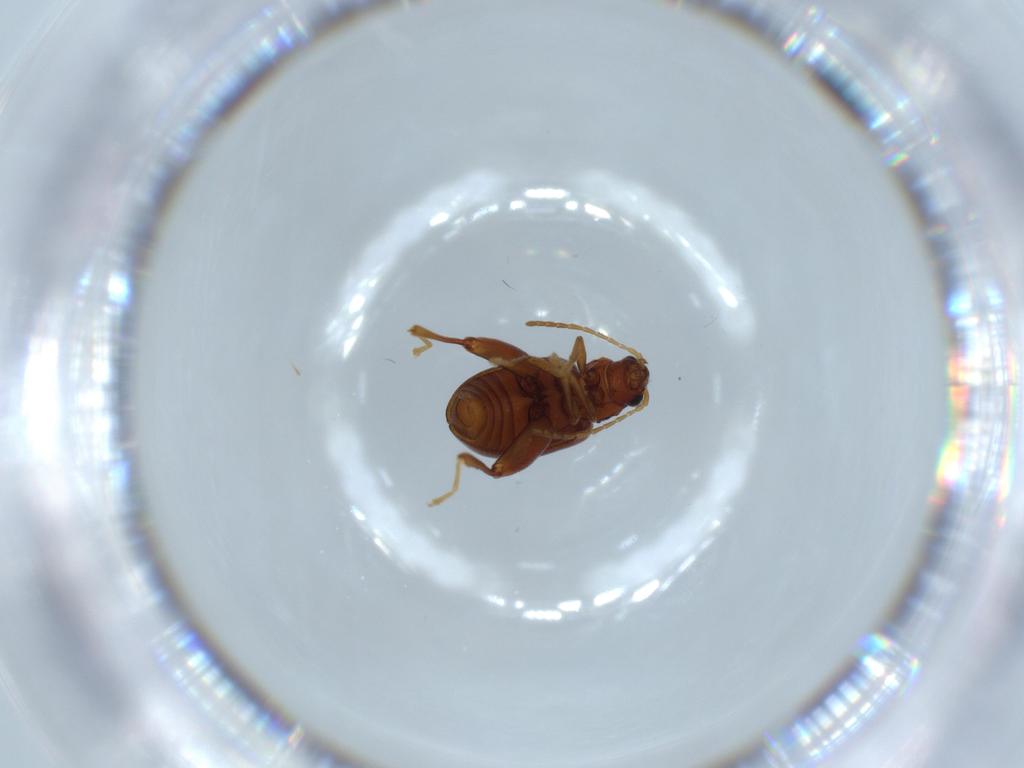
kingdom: Animalia
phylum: Arthropoda
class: Insecta
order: Coleoptera
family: Chrysomelidae
